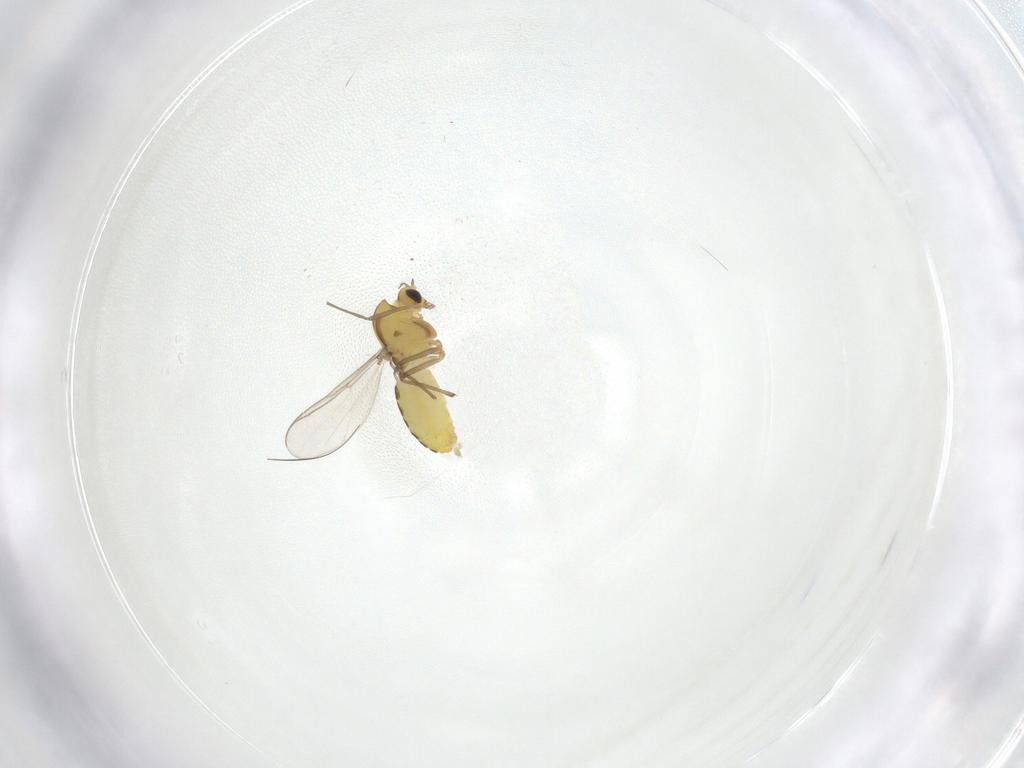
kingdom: Animalia
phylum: Arthropoda
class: Insecta
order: Diptera
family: Chironomidae
